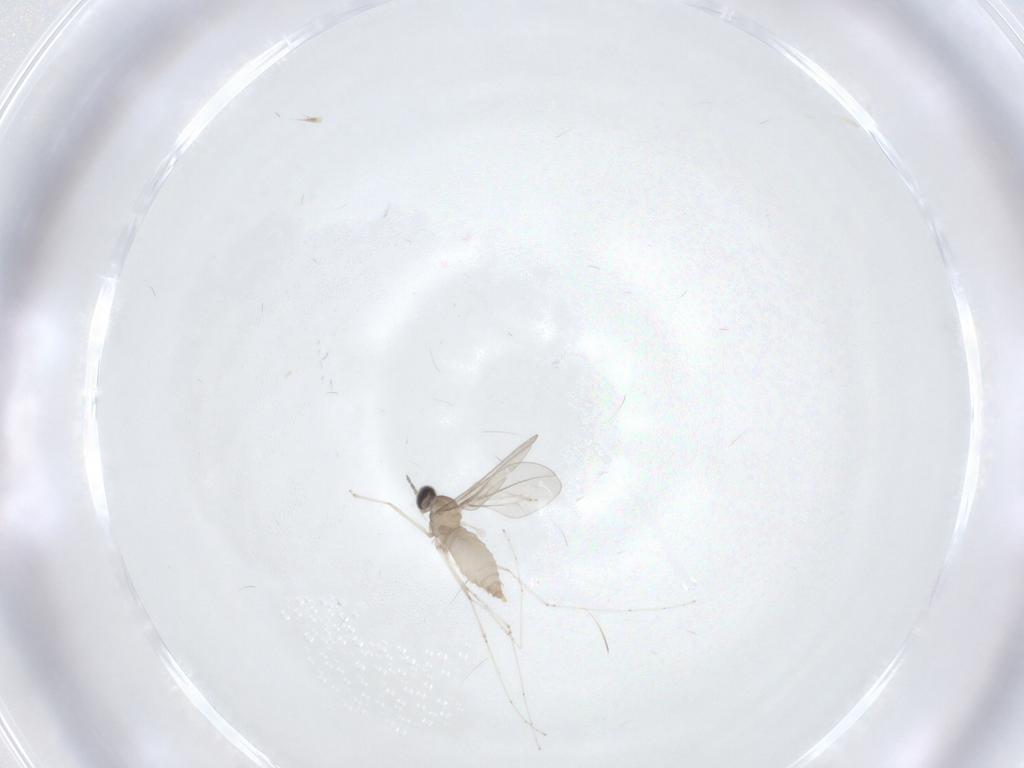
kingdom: Animalia
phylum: Arthropoda
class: Insecta
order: Diptera
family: Cecidomyiidae
